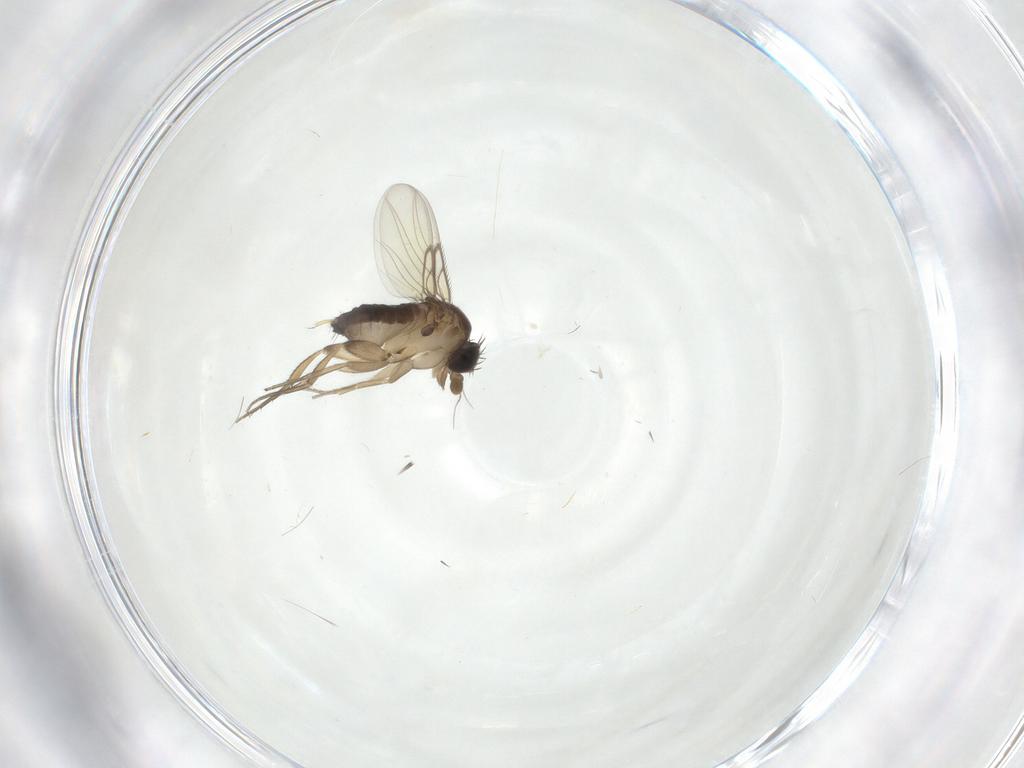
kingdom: Animalia
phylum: Arthropoda
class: Insecta
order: Diptera
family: Phoridae
